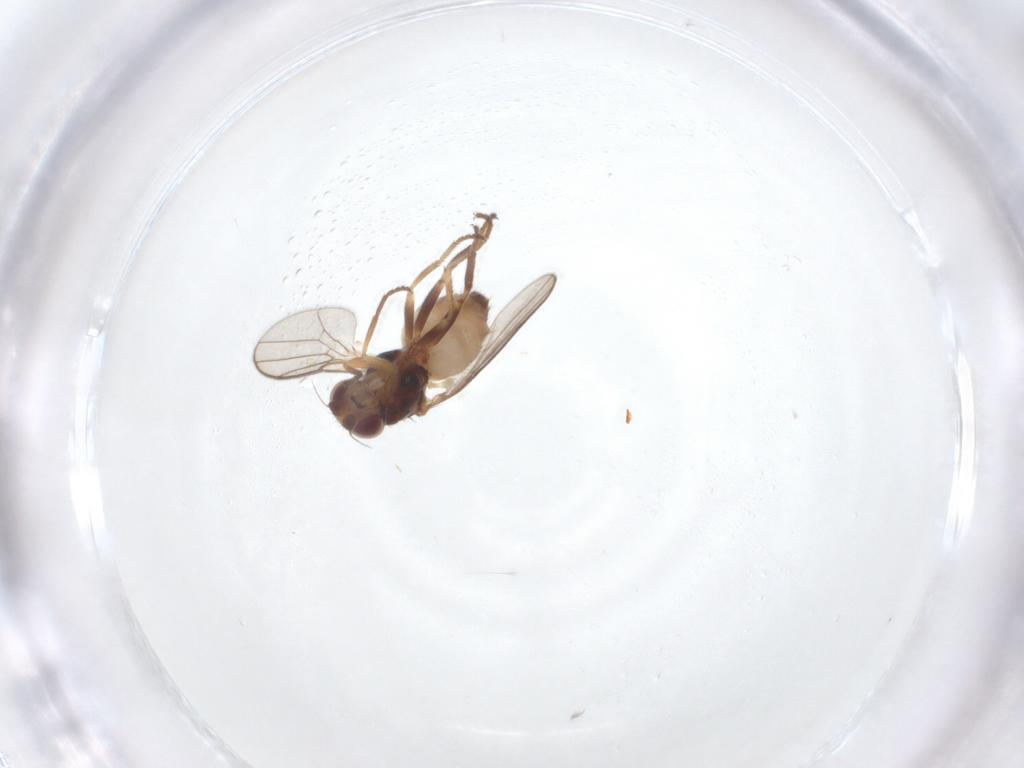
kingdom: Animalia
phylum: Arthropoda
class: Insecta
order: Diptera
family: Chloropidae
